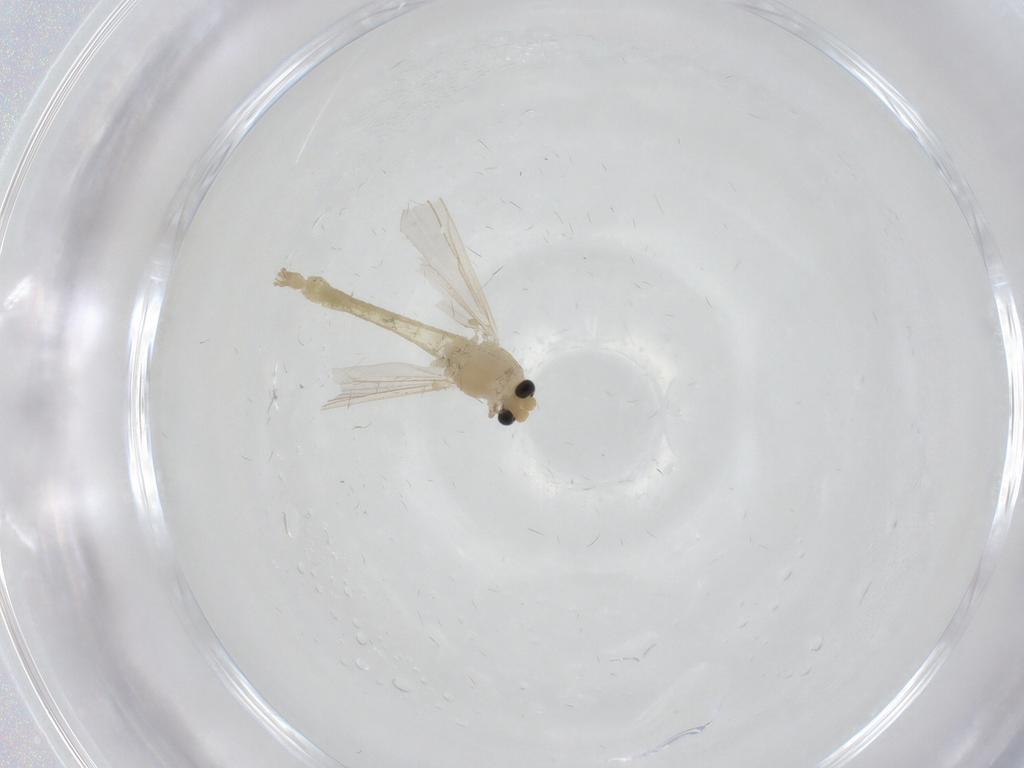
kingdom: Animalia
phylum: Arthropoda
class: Insecta
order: Diptera
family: Chironomidae
